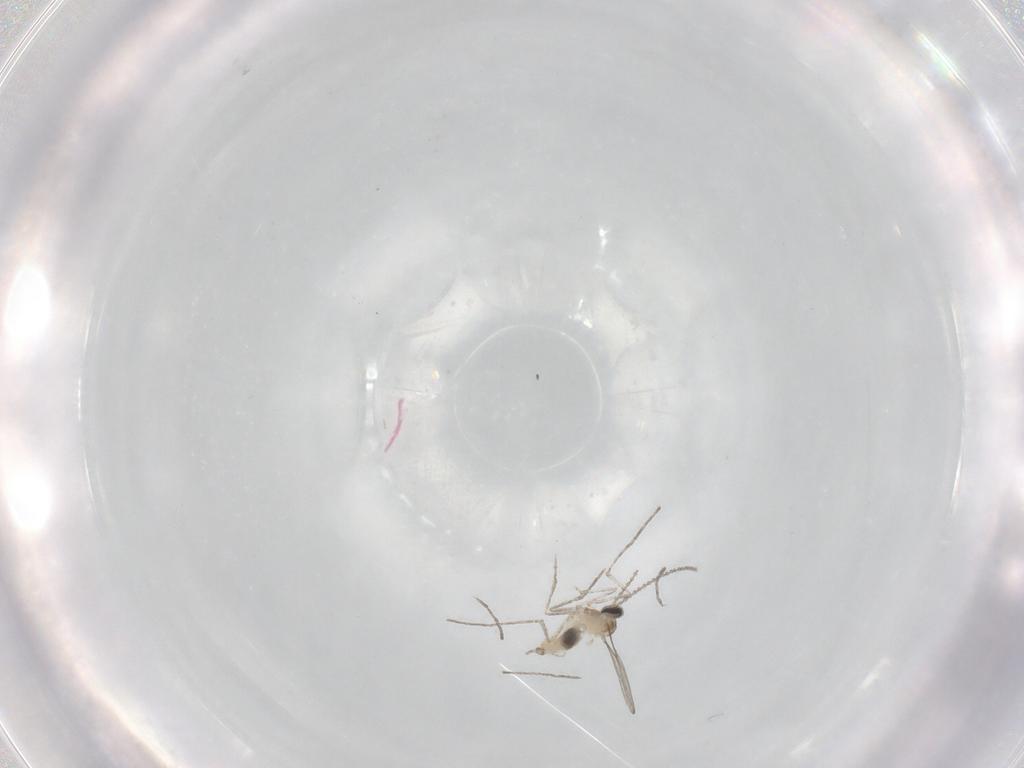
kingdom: Animalia
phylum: Arthropoda
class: Insecta
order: Diptera
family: Cecidomyiidae
